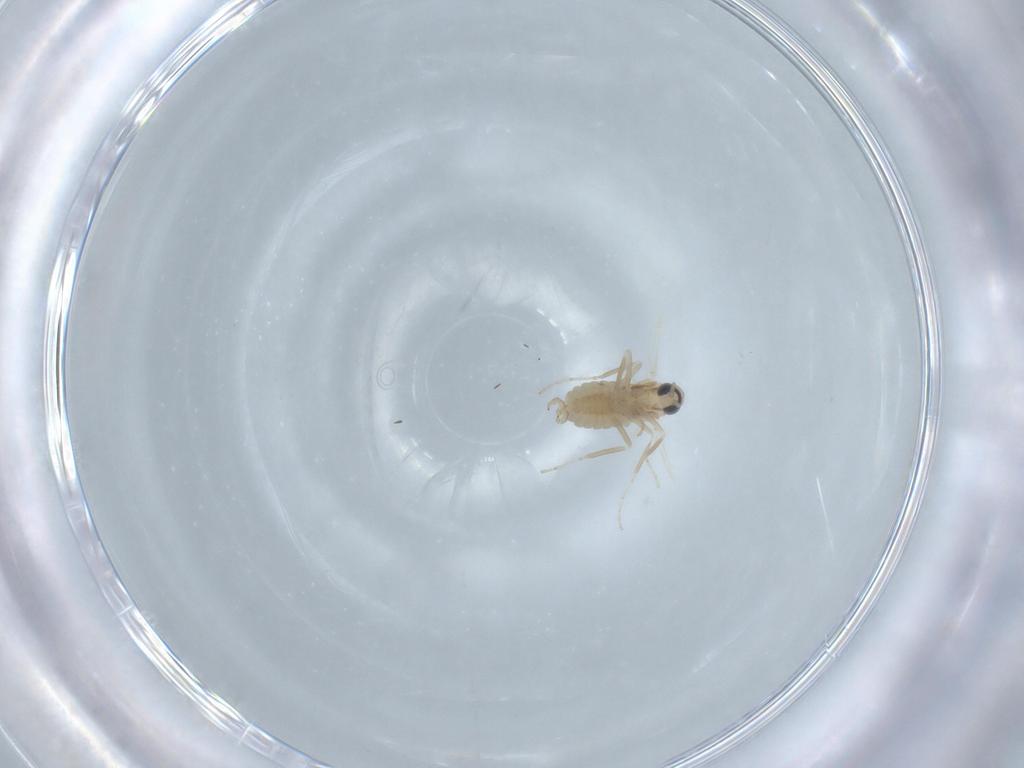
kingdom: Animalia
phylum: Arthropoda
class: Insecta
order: Diptera
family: Cecidomyiidae
